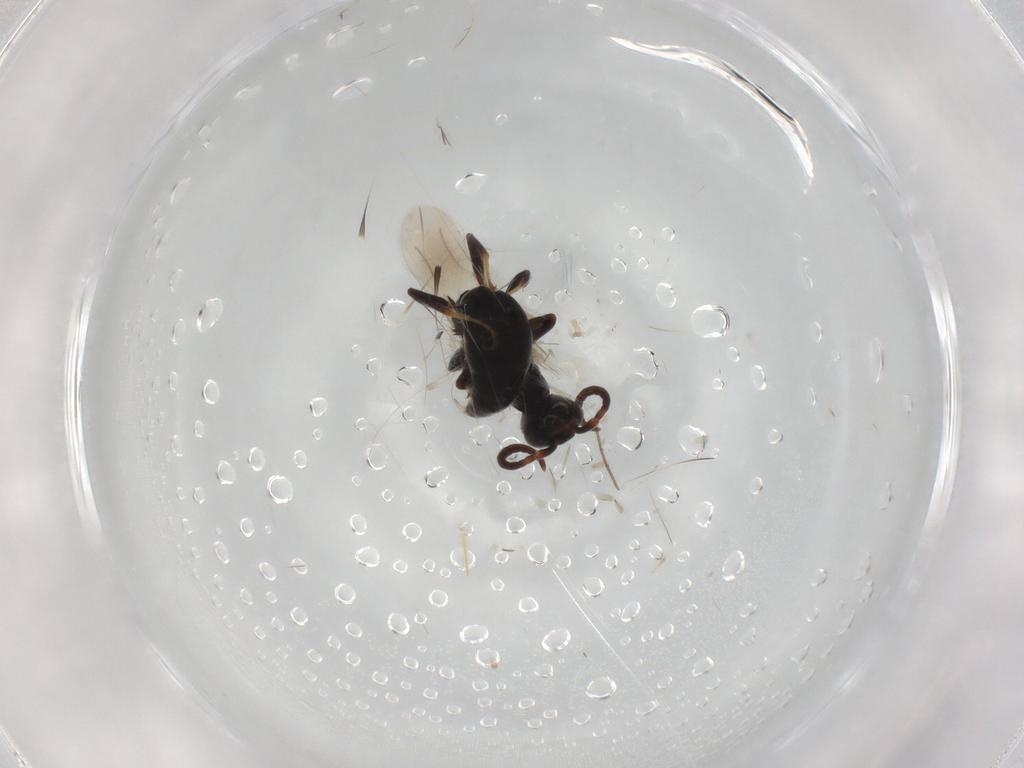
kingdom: Animalia
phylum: Arthropoda
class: Insecta
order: Hymenoptera
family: Bethylidae
